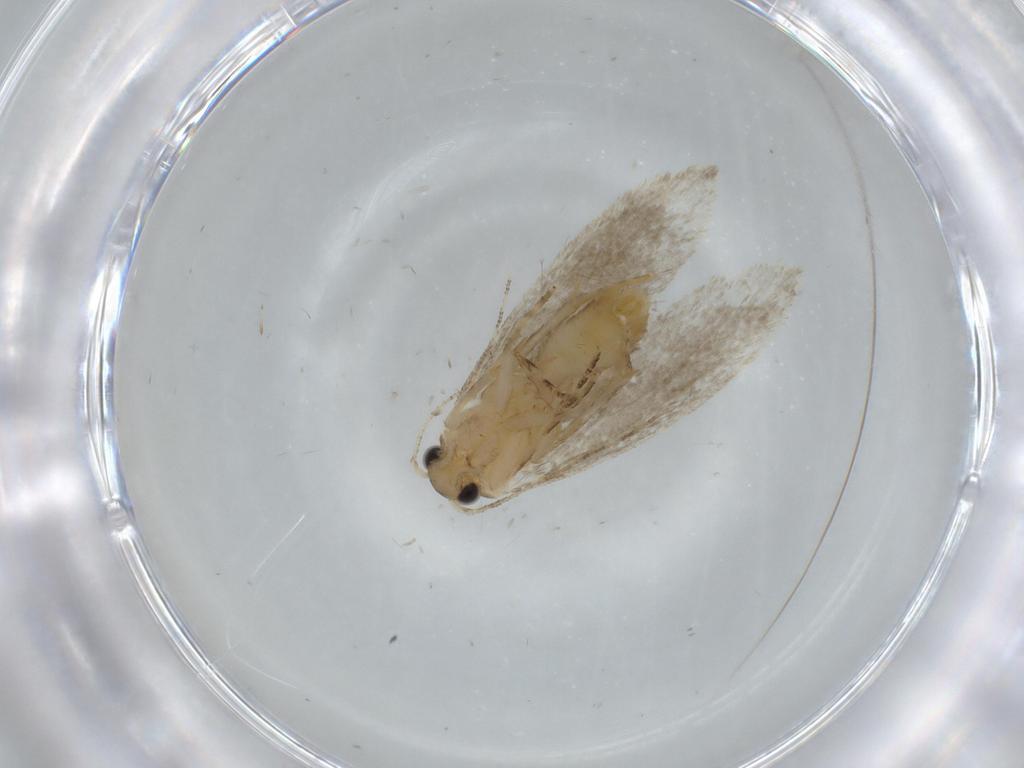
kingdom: Animalia
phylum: Arthropoda
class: Insecta
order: Lepidoptera
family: Tineidae
